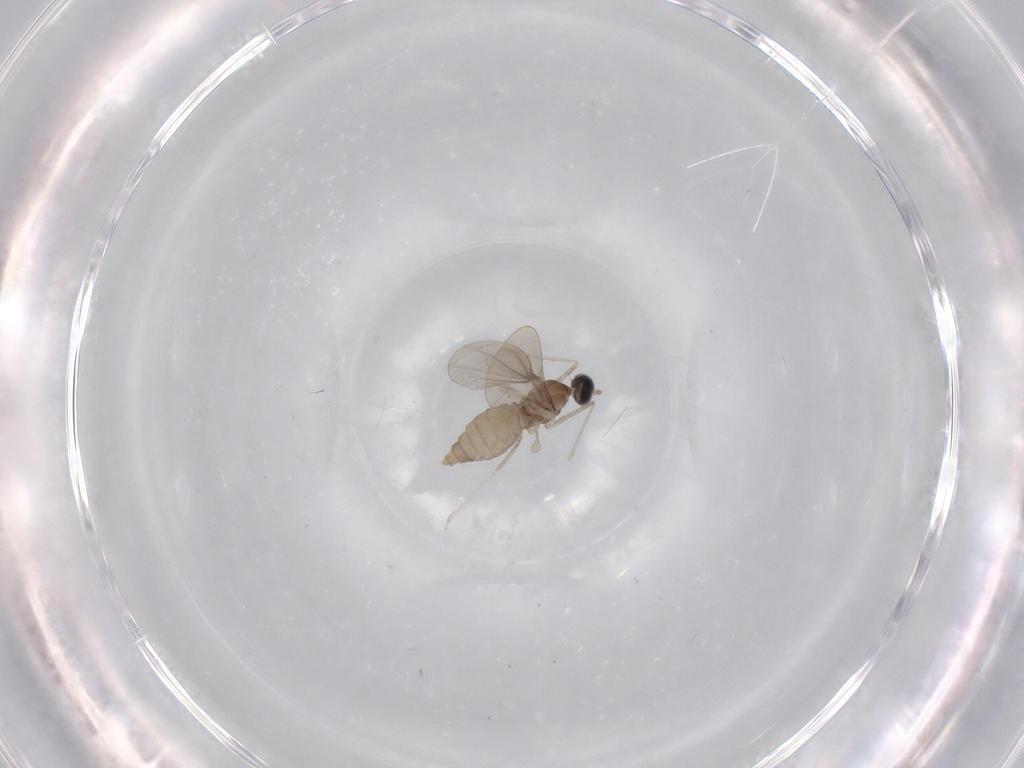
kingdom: Animalia
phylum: Arthropoda
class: Insecta
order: Diptera
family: Cecidomyiidae
